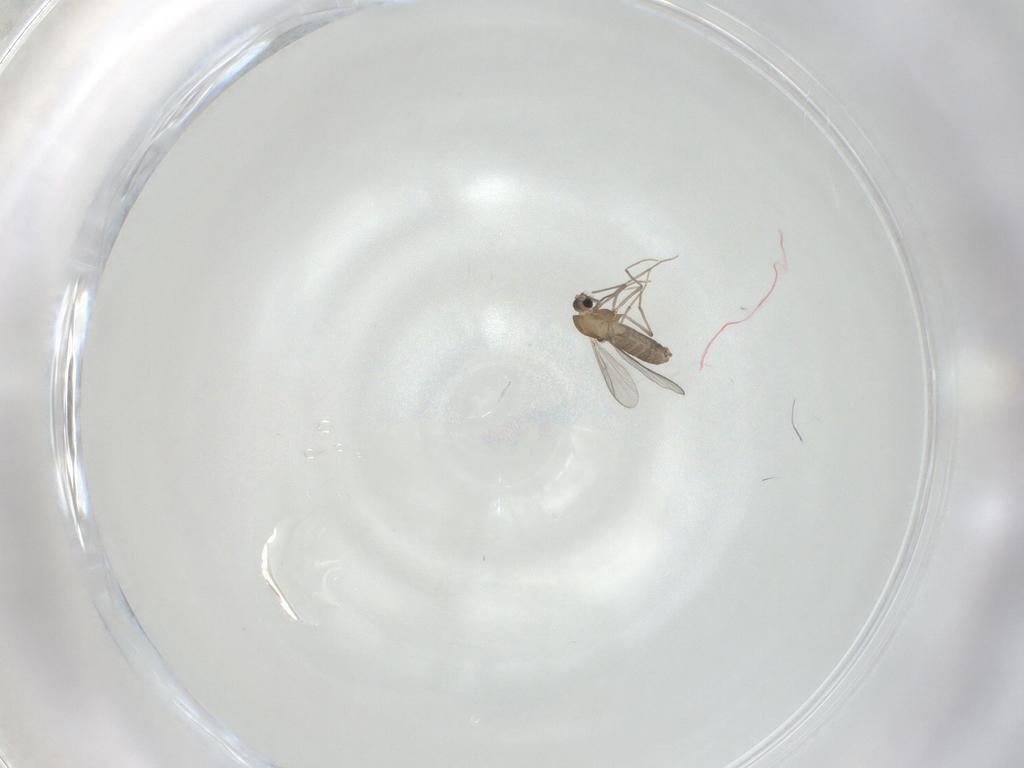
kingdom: Animalia
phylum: Arthropoda
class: Insecta
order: Diptera
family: Chironomidae
